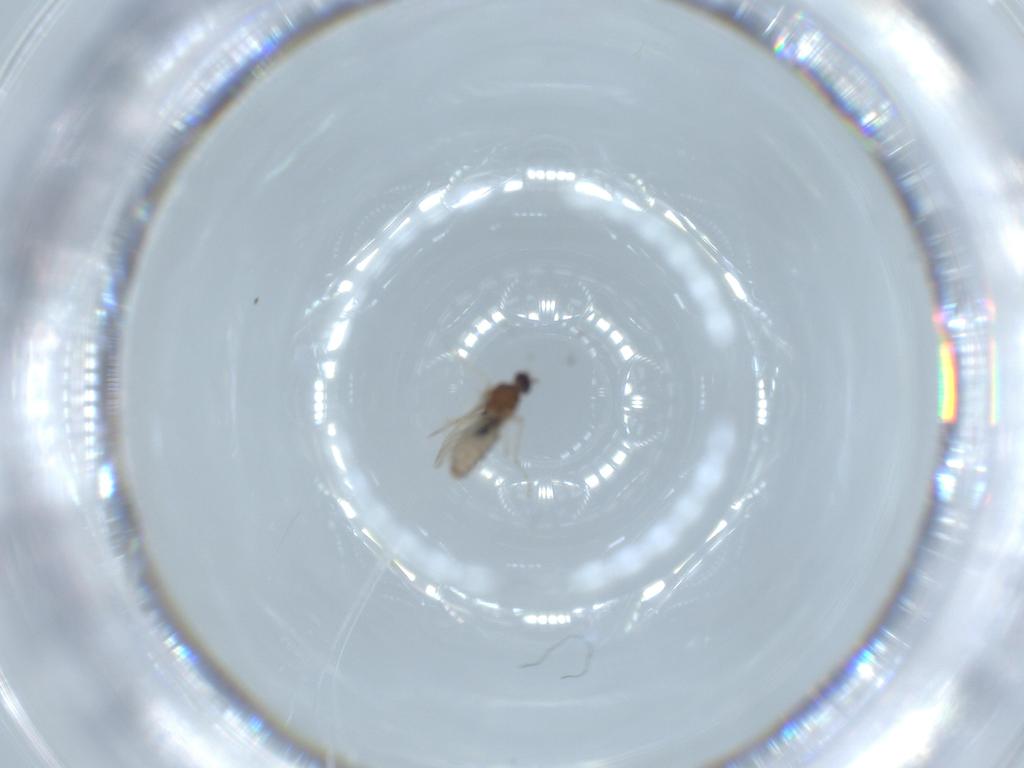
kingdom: Animalia
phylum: Arthropoda
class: Insecta
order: Diptera
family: Cecidomyiidae
